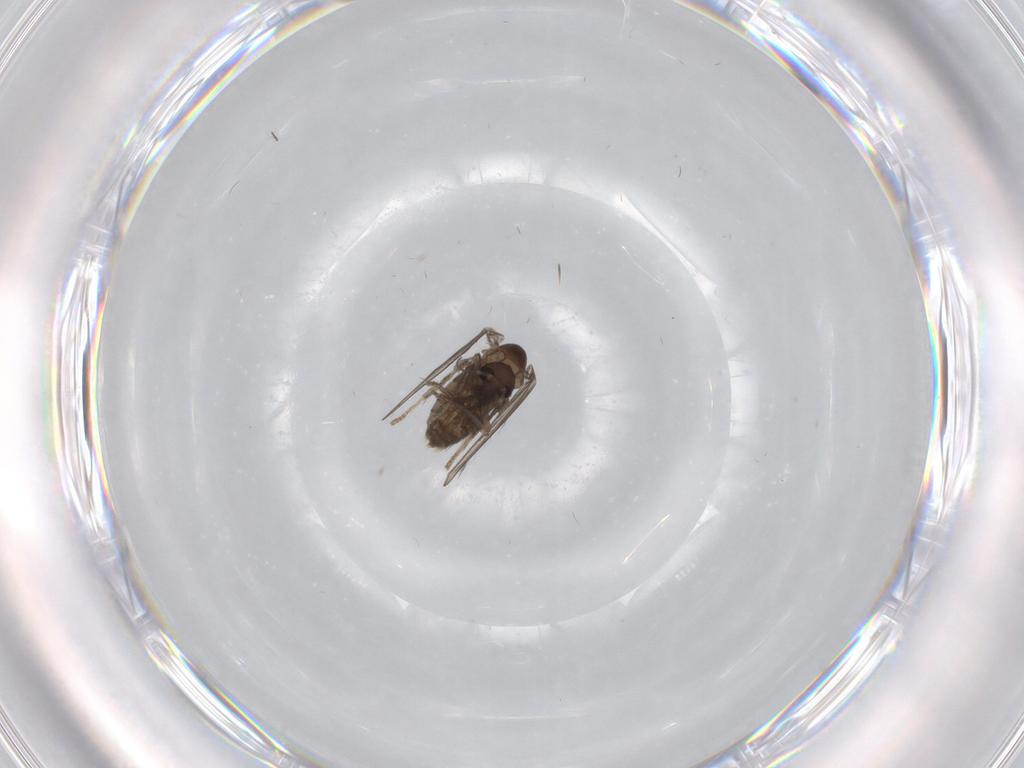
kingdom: Animalia
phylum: Arthropoda
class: Insecta
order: Diptera
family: Psychodidae
